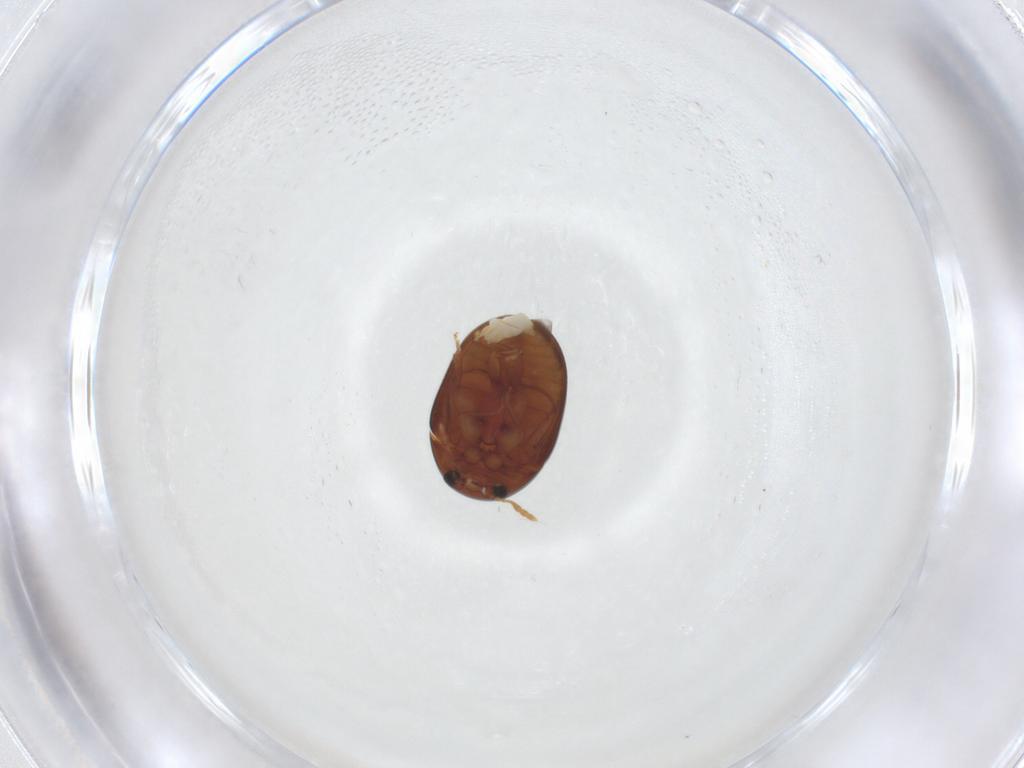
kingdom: Animalia
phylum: Arthropoda
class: Insecta
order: Coleoptera
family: Phalacridae
